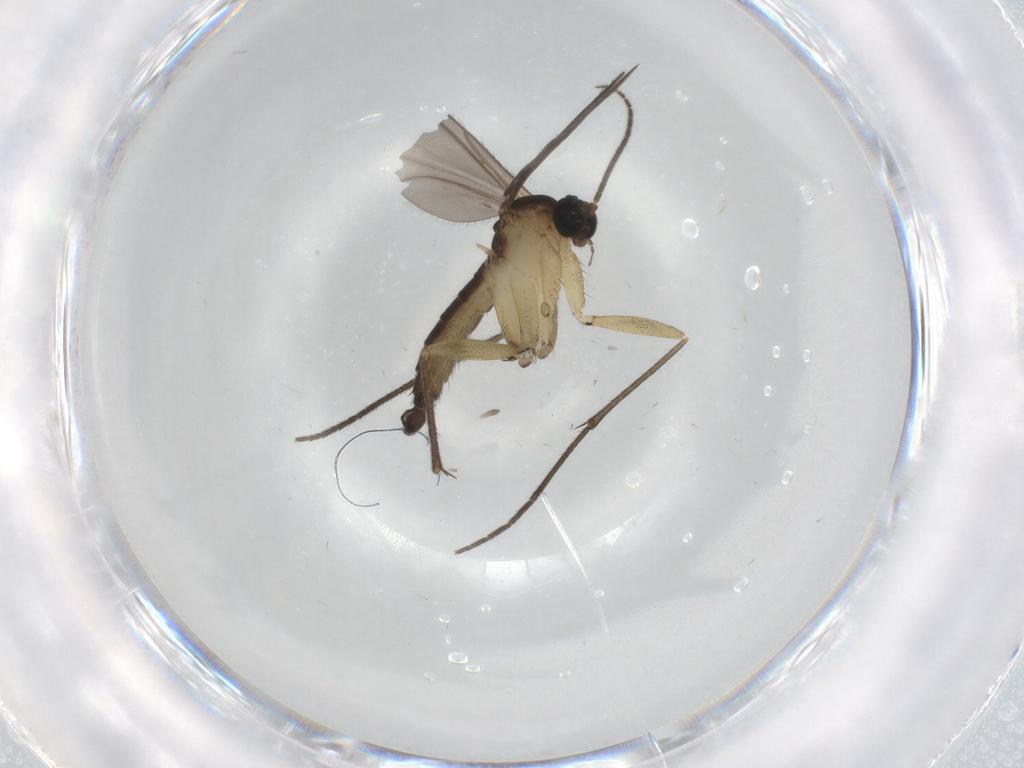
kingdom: Animalia
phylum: Arthropoda
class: Insecta
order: Diptera
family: Sciaridae
